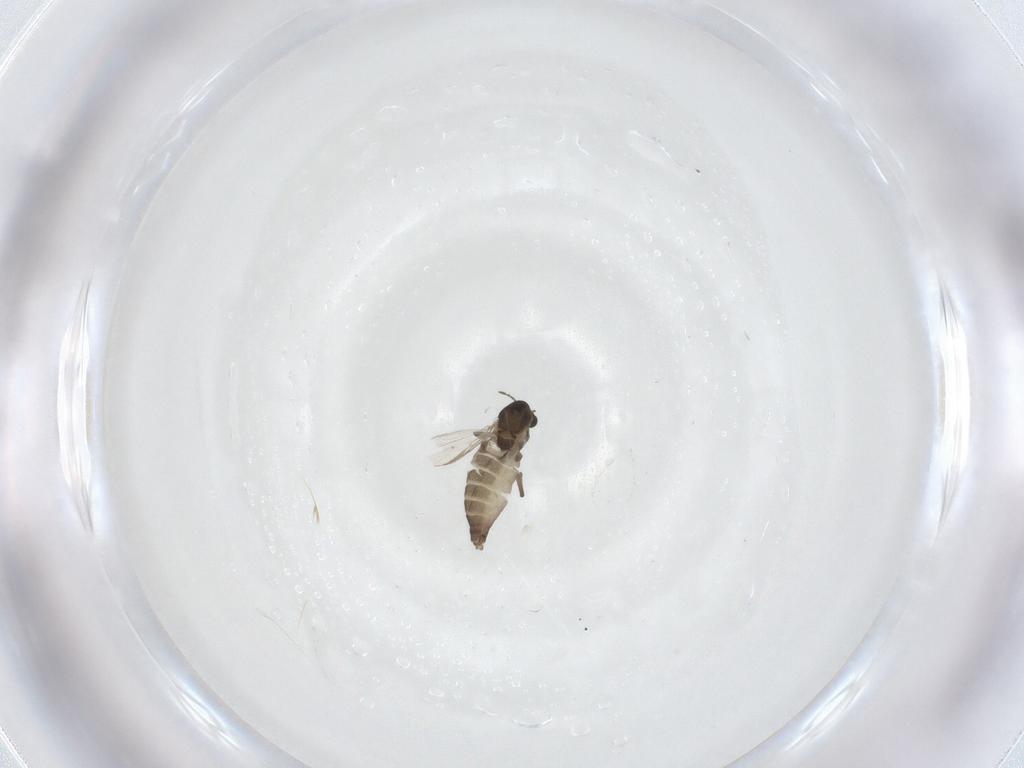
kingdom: Animalia
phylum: Arthropoda
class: Insecta
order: Diptera
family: Chironomidae
